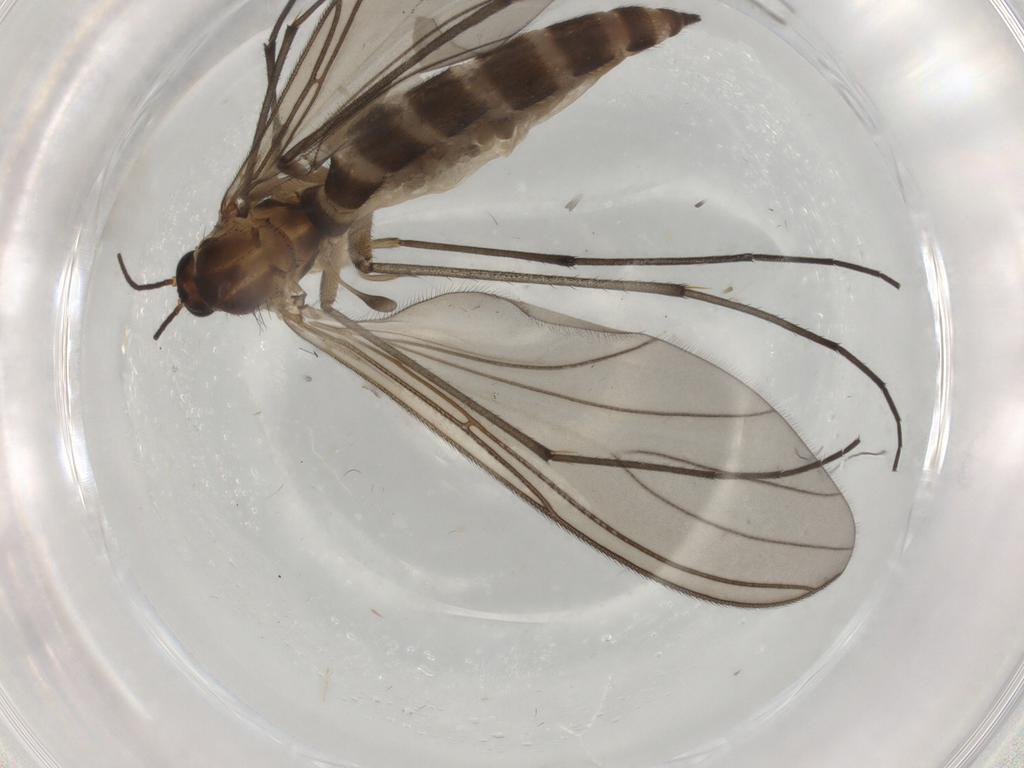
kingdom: Animalia
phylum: Arthropoda
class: Insecta
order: Diptera
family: Sciaridae
